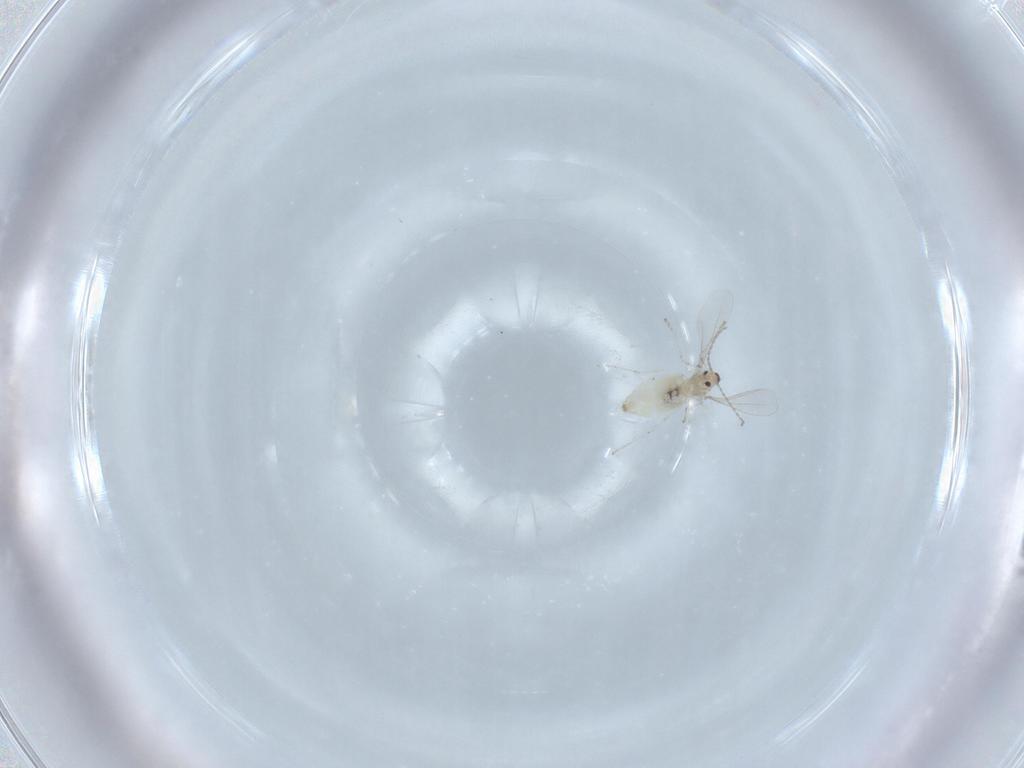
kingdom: Animalia
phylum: Arthropoda
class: Insecta
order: Diptera
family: Cecidomyiidae
